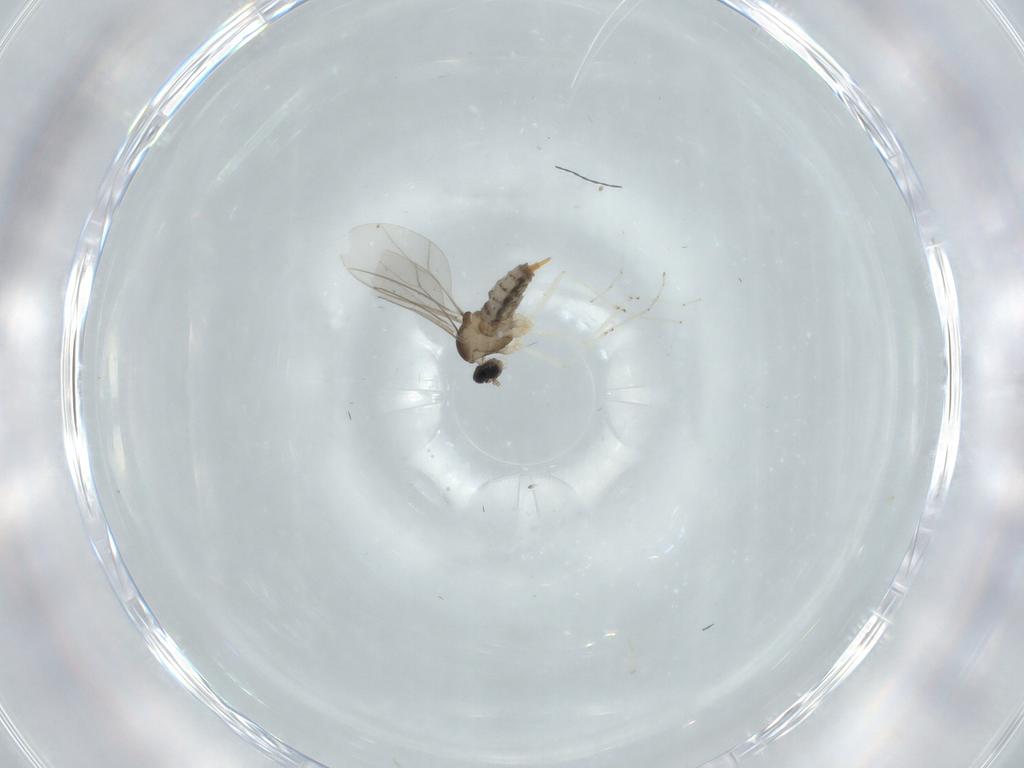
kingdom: Animalia
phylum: Arthropoda
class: Insecta
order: Diptera
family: Cecidomyiidae
